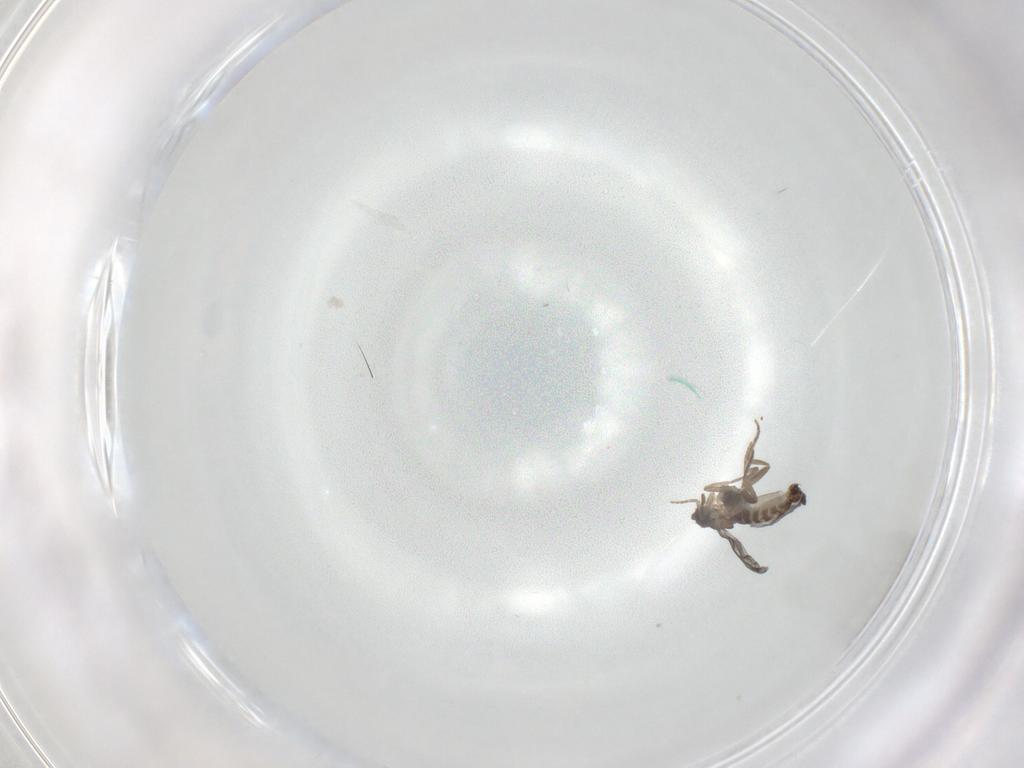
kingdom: Animalia
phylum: Arthropoda
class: Insecta
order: Diptera
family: Cecidomyiidae
